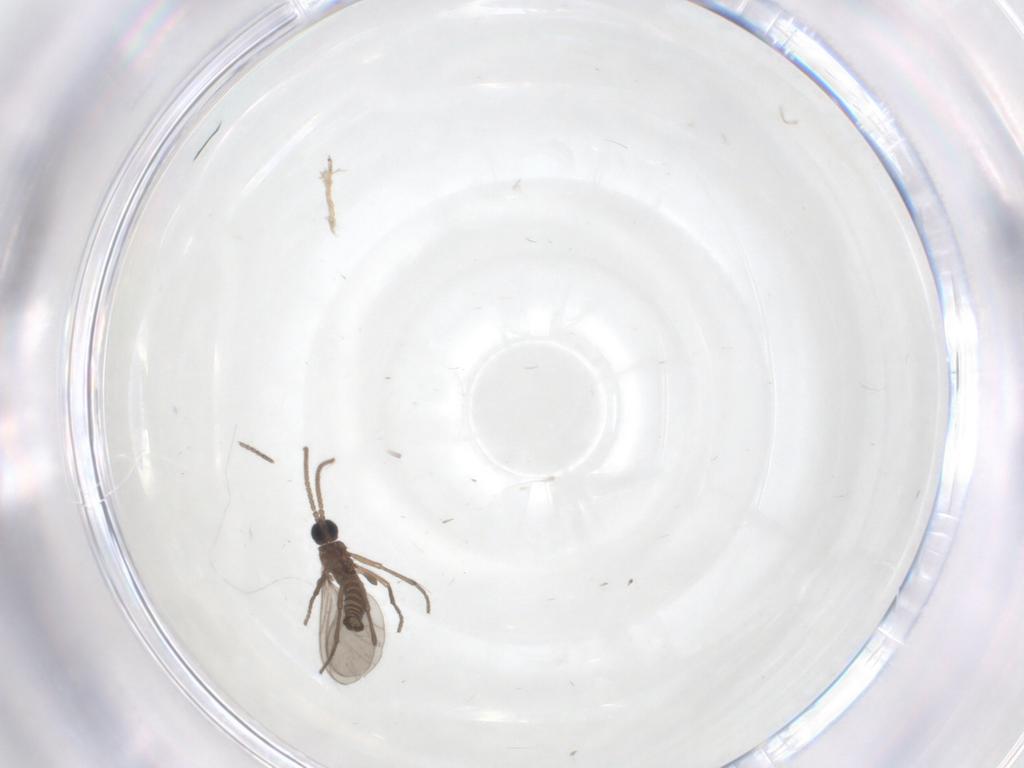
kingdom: Animalia
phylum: Arthropoda
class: Insecta
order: Diptera
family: Sciaridae
